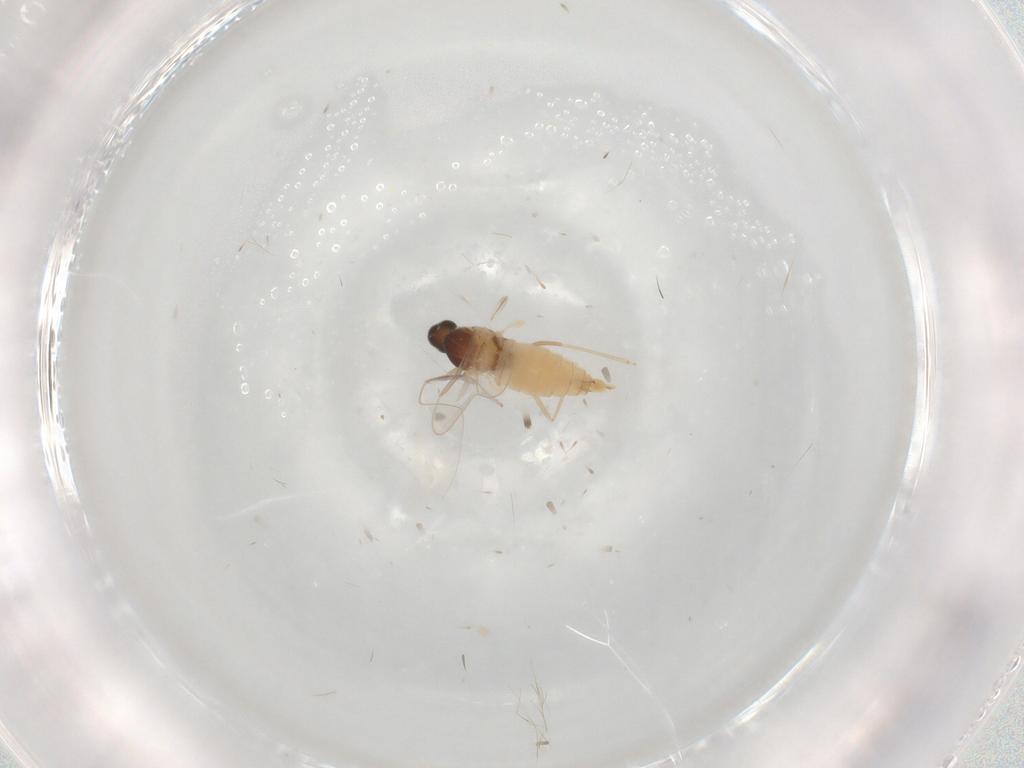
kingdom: Animalia
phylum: Arthropoda
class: Insecta
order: Diptera
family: Cecidomyiidae
